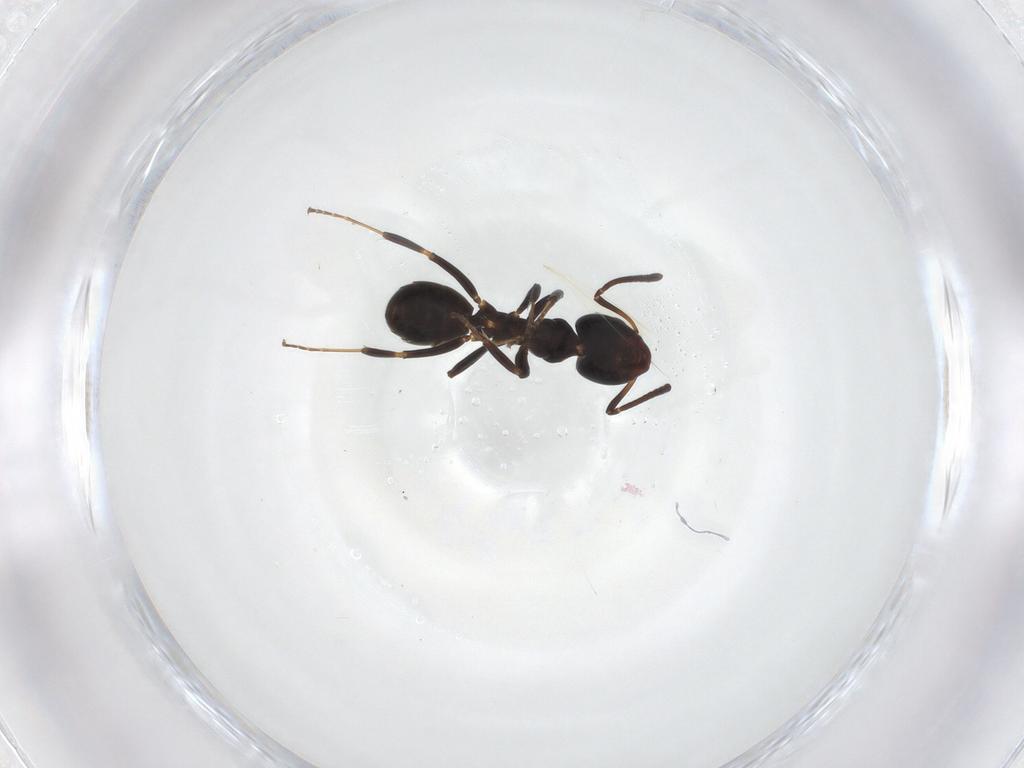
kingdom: Animalia
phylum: Arthropoda
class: Insecta
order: Hymenoptera
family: Formicidae
